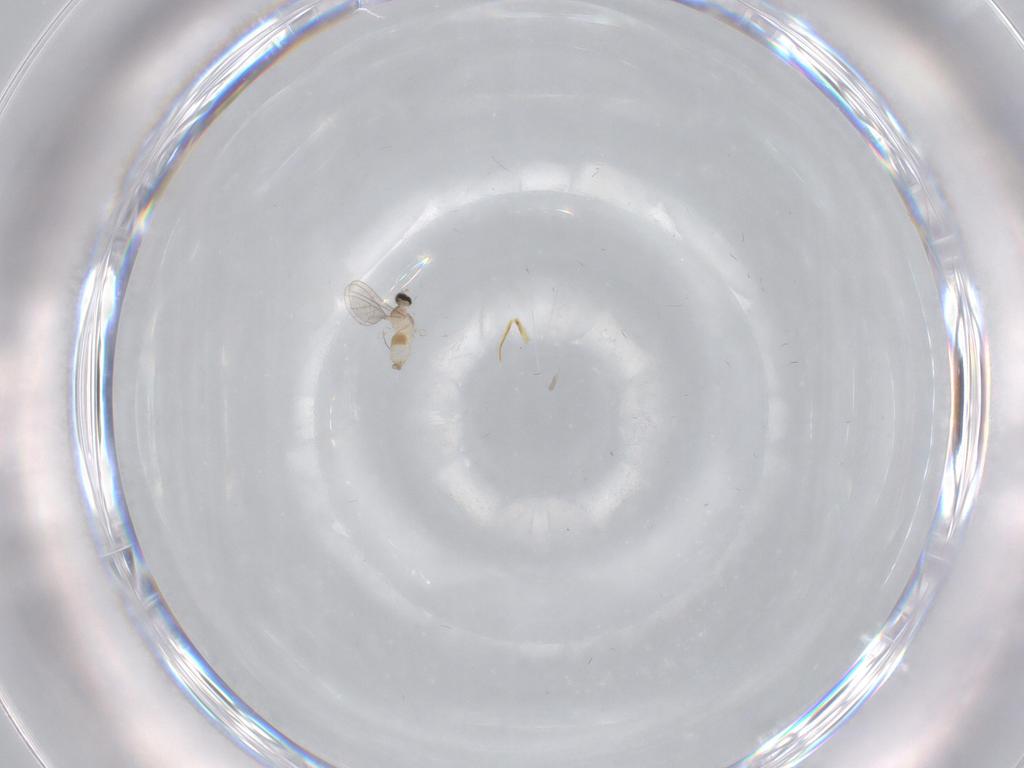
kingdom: Animalia
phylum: Arthropoda
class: Insecta
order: Diptera
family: Cecidomyiidae
